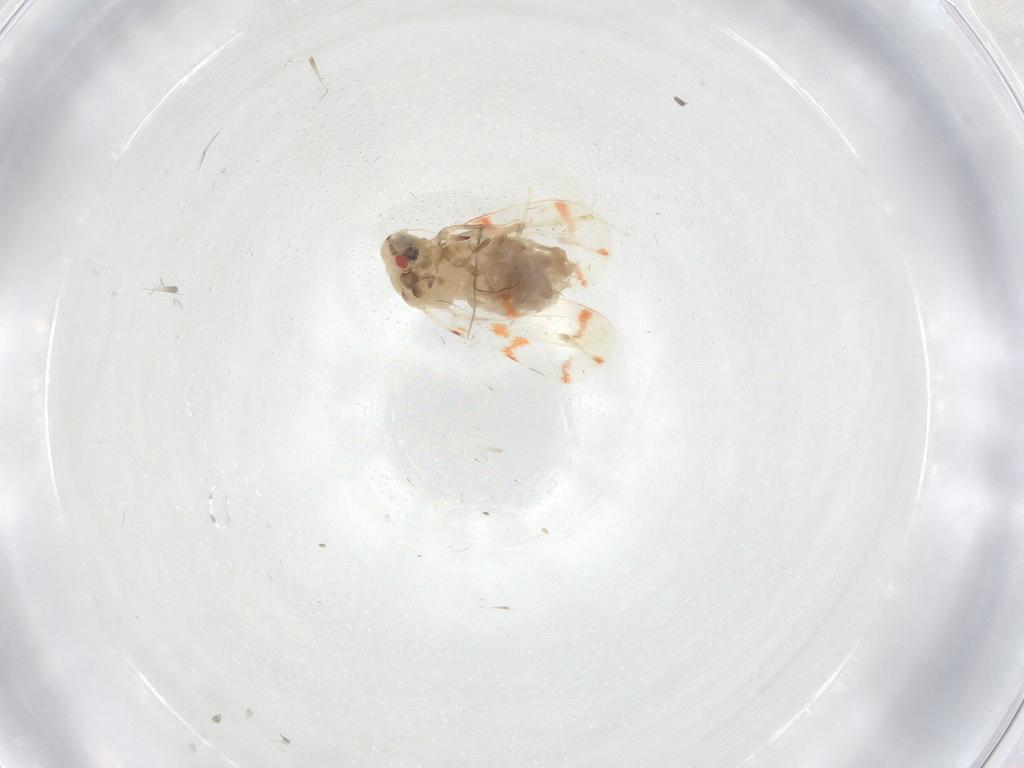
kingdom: Animalia
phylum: Arthropoda
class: Insecta
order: Hemiptera
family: Aleyrodidae
